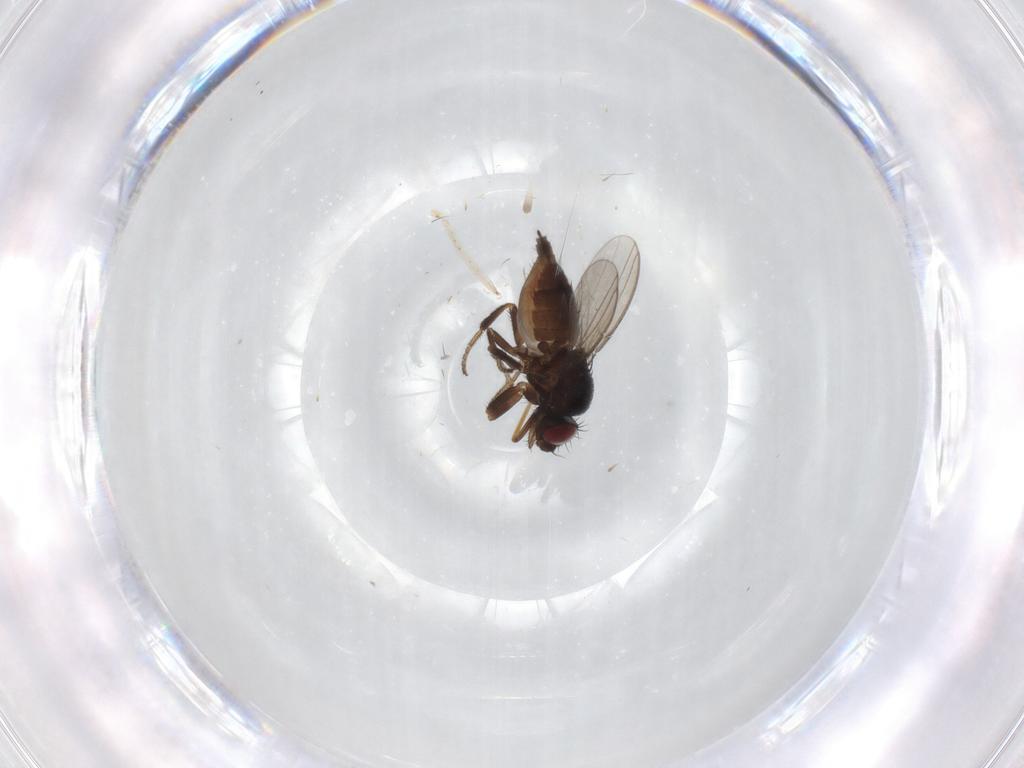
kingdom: Animalia
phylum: Arthropoda
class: Insecta
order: Diptera
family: Milichiidae
